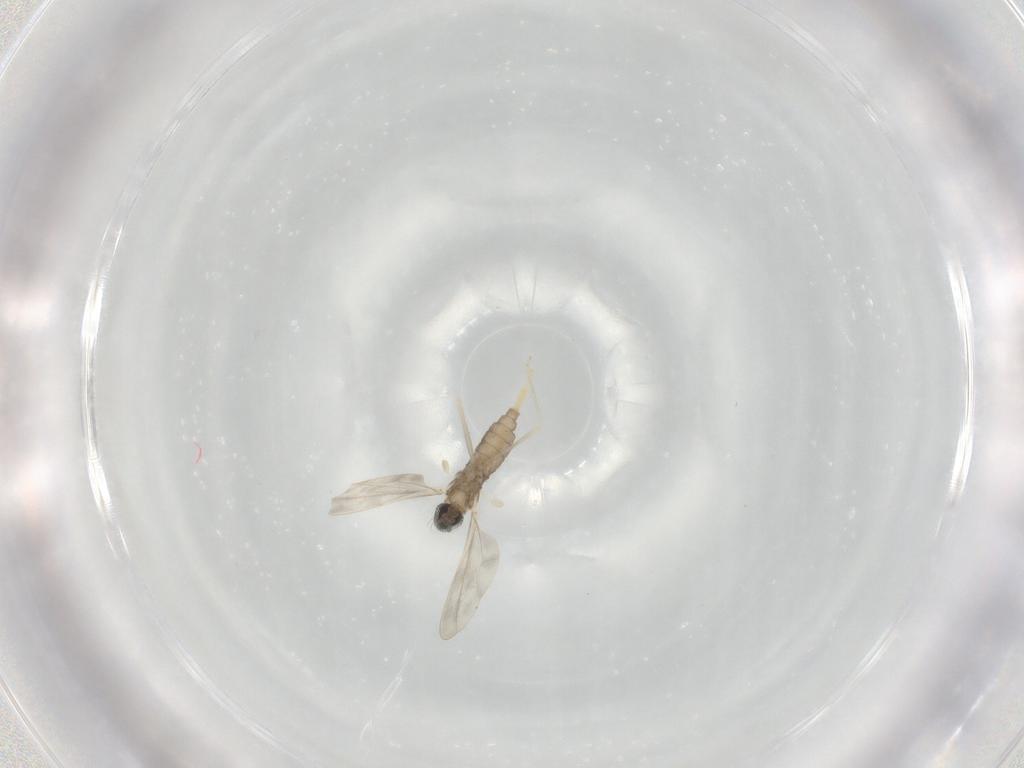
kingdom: Animalia
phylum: Arthropoda
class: Insecta
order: Diptera
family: Cecidomyiidae
